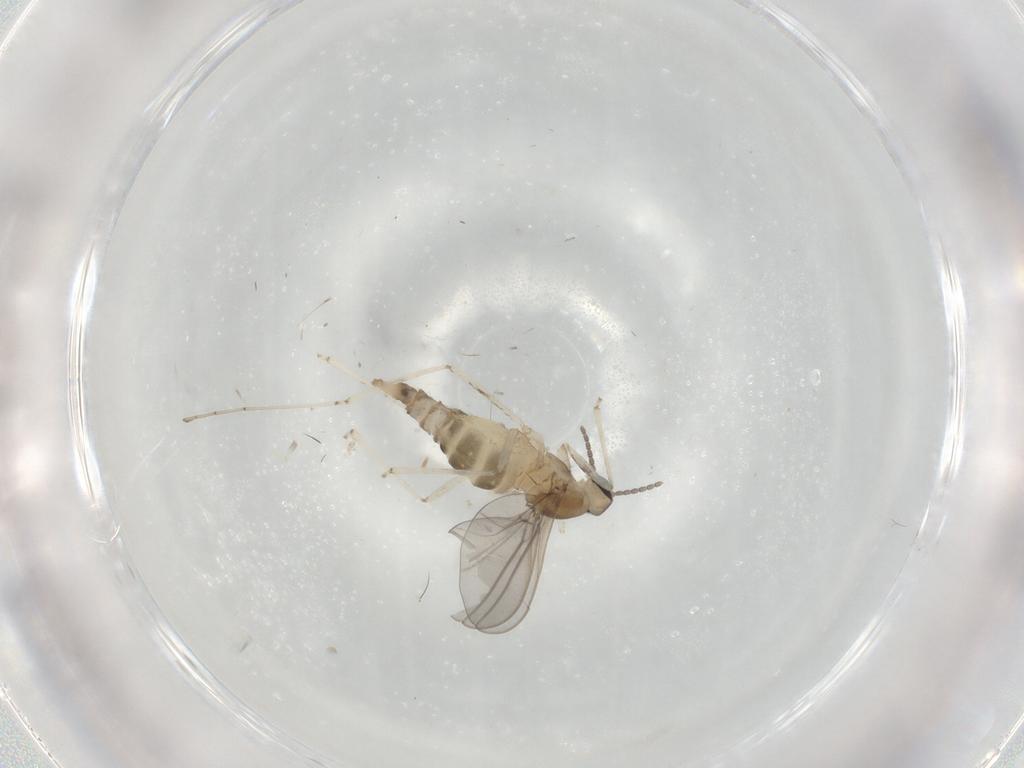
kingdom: Animalia
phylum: Arthropoda
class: Insecta
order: Diptera
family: Cecidomyiidae
